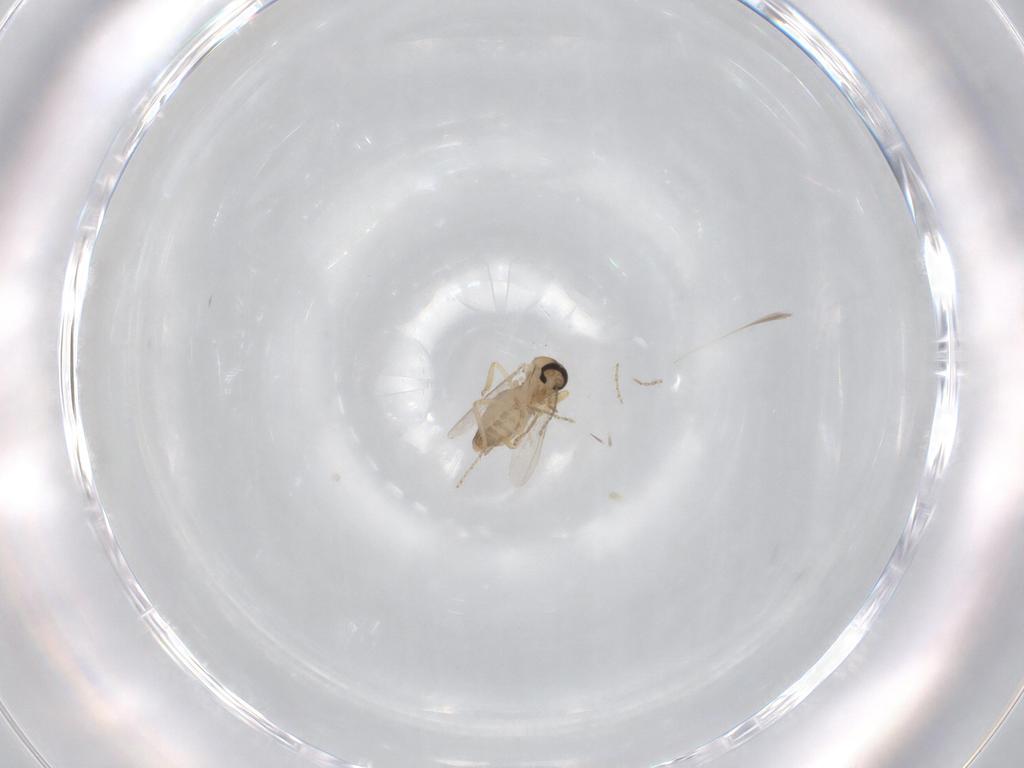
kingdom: Animalia
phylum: Arthropoda
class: Insecta
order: Diptera
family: Ceratopogonidae
